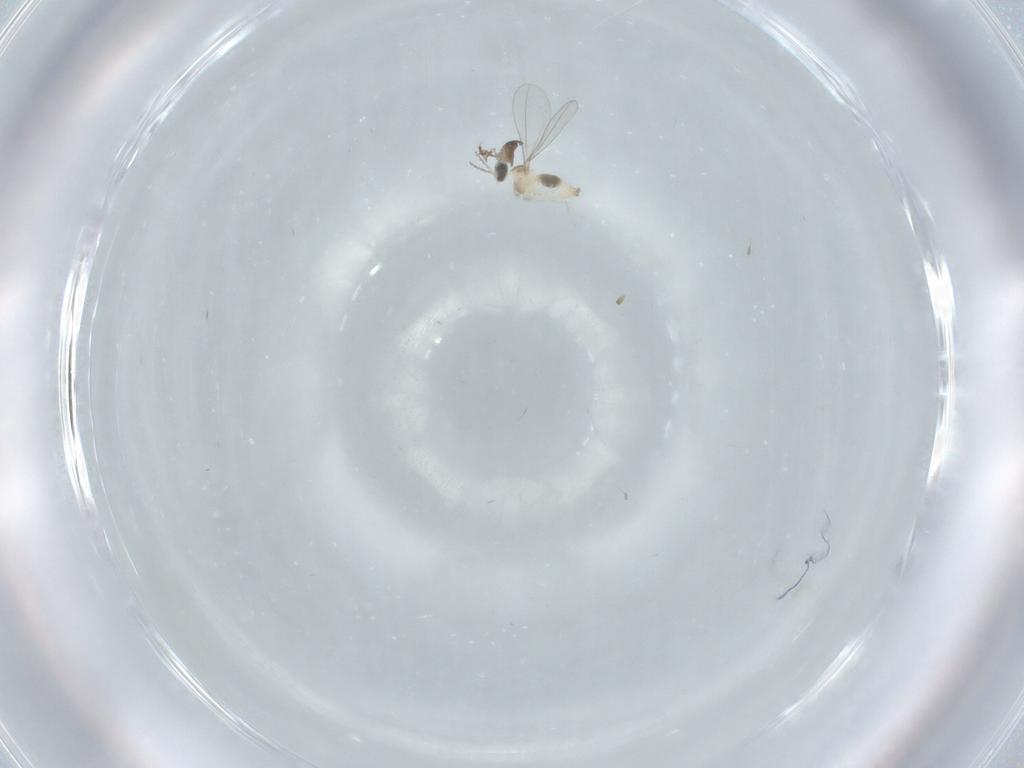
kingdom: Animalia
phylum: Arthropoda
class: Insecta
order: Diptera
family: Cecidomyiidae
